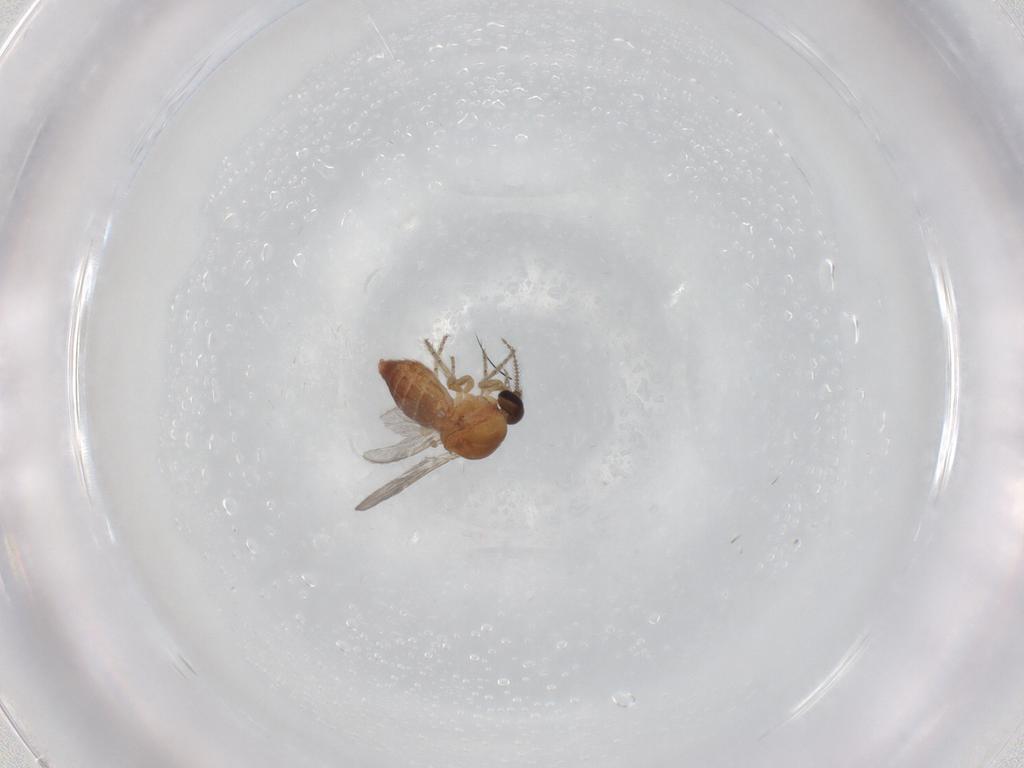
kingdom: Animalia
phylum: Arthropoda
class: Insecta
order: Diptera
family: Ceratopogonidae
